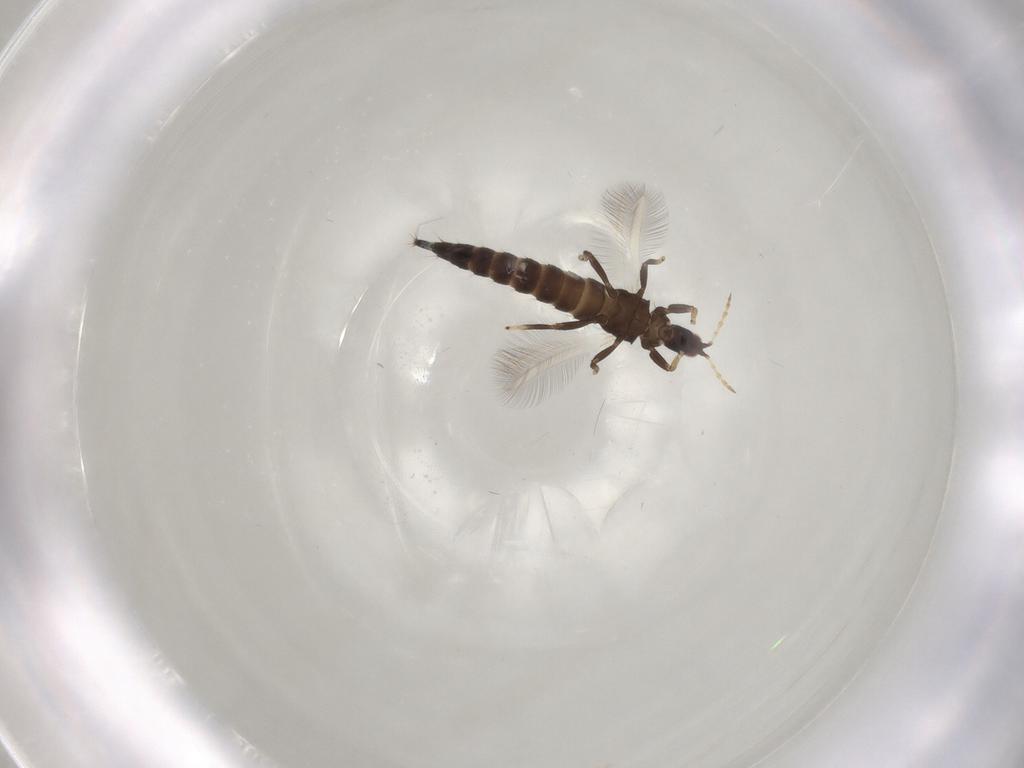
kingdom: Animalia
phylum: Arthropoda
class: Insecta
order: Thysanoptera
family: Phlaeothripidae
